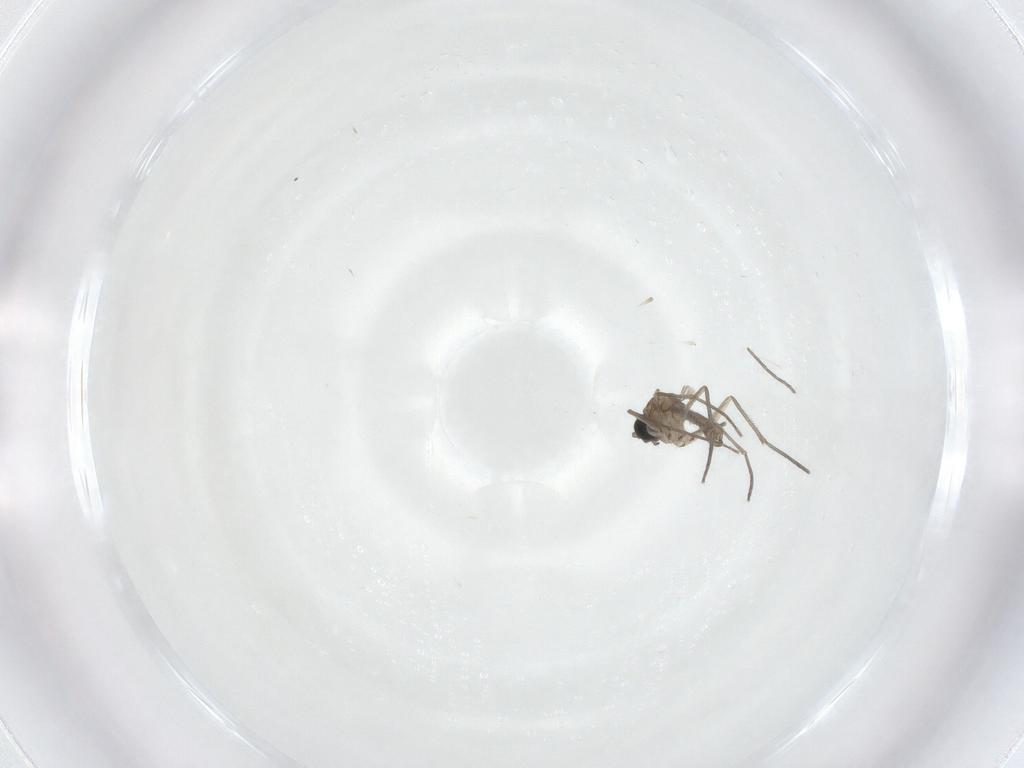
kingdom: Animalia
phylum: Arthropoda
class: Insecta
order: Diptera
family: Sciaridae
